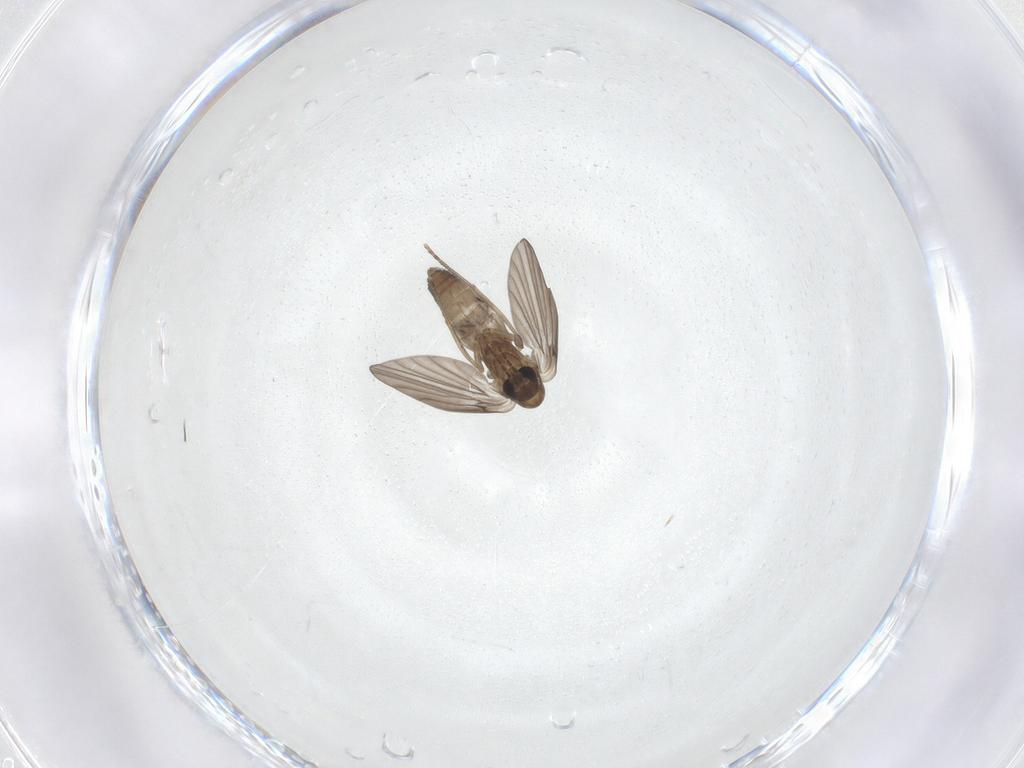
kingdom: Animalia
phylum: Arthropoda
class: Insecta
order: Diptera
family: Psychodidae
